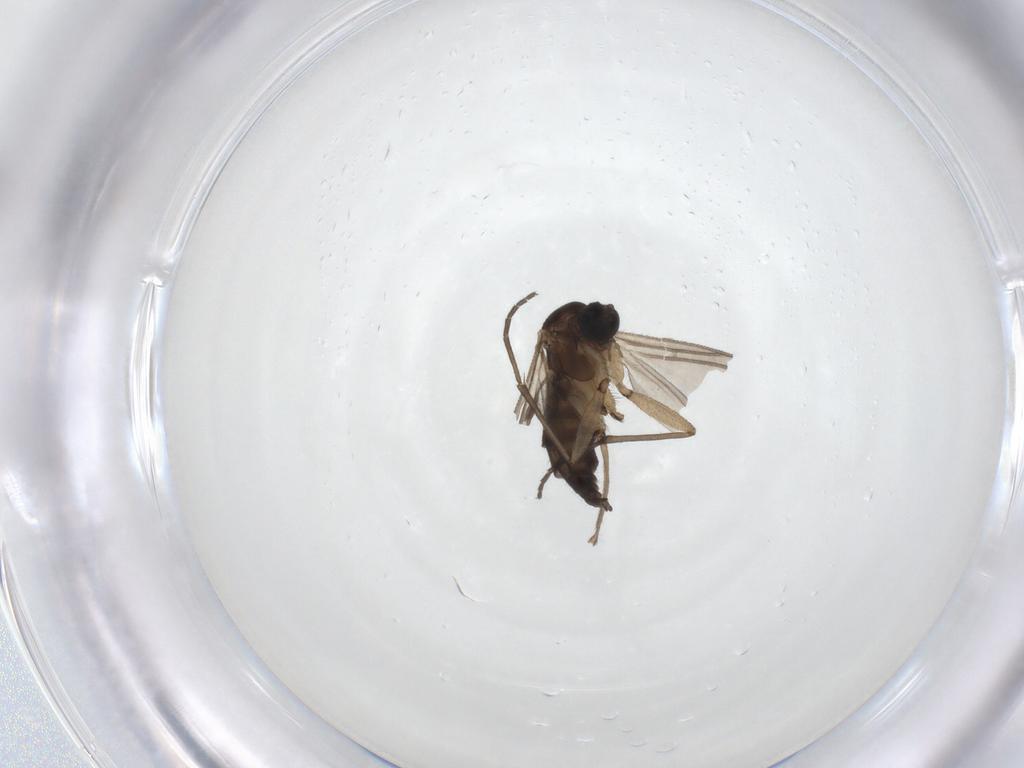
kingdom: Animalia
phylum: Arthropoda
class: Insecta
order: Diptera
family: Sciaridae
